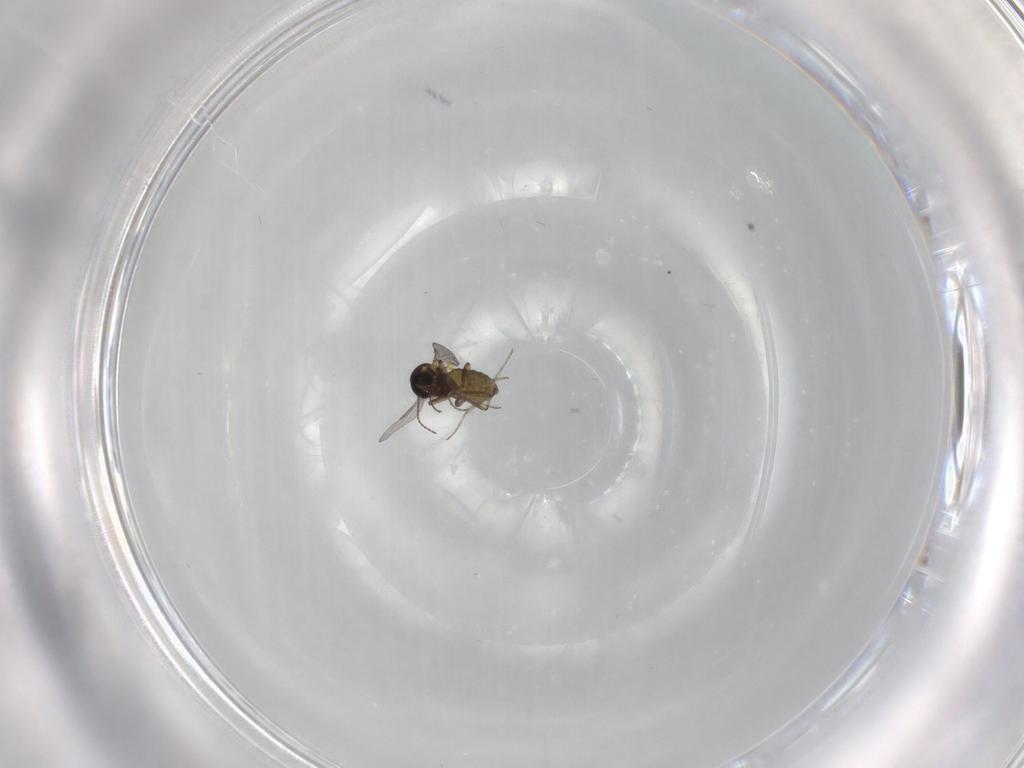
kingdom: Animalia
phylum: Arthropoda
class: Insecta
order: Diptera
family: Ceratopogonidae
